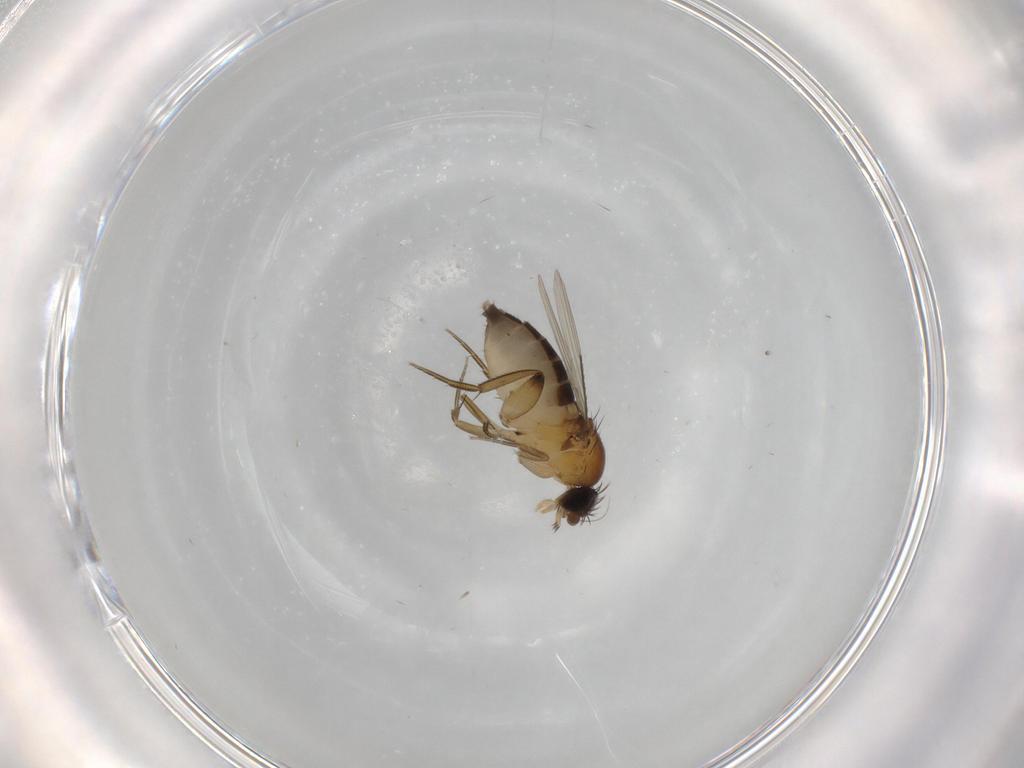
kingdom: Animalia
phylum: Arthropoda
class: Insecta
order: Diptera
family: Phoridae
